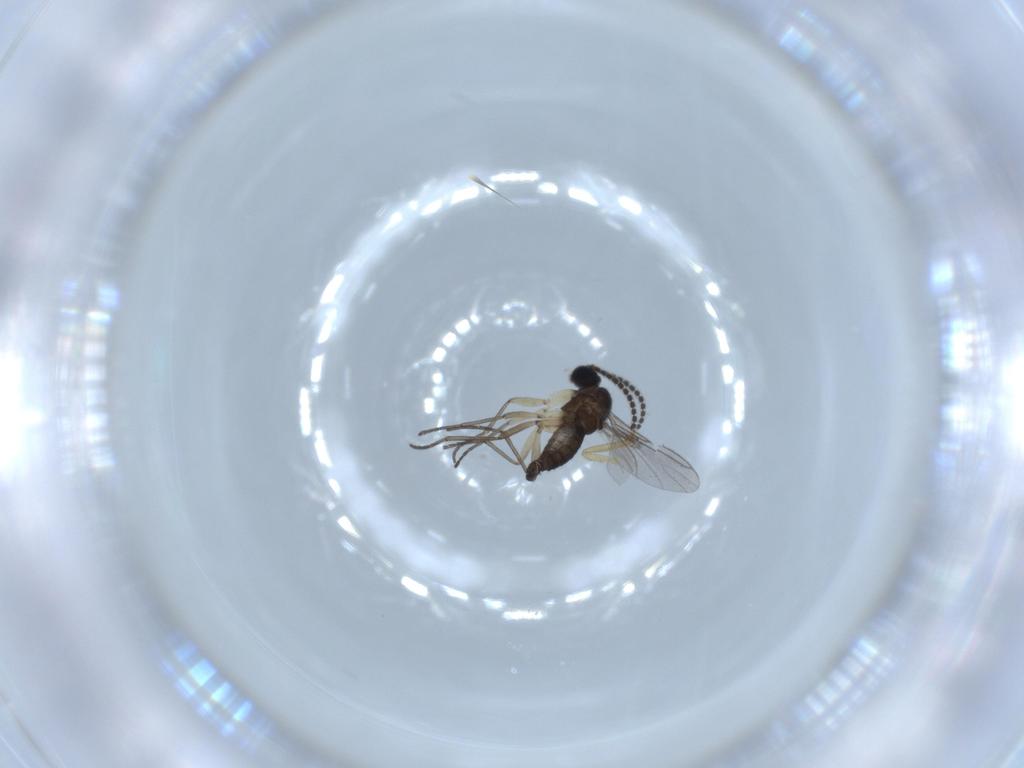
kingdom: Animalia
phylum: Arthropoda
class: Insecta
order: Diptera
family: Sciaridae
